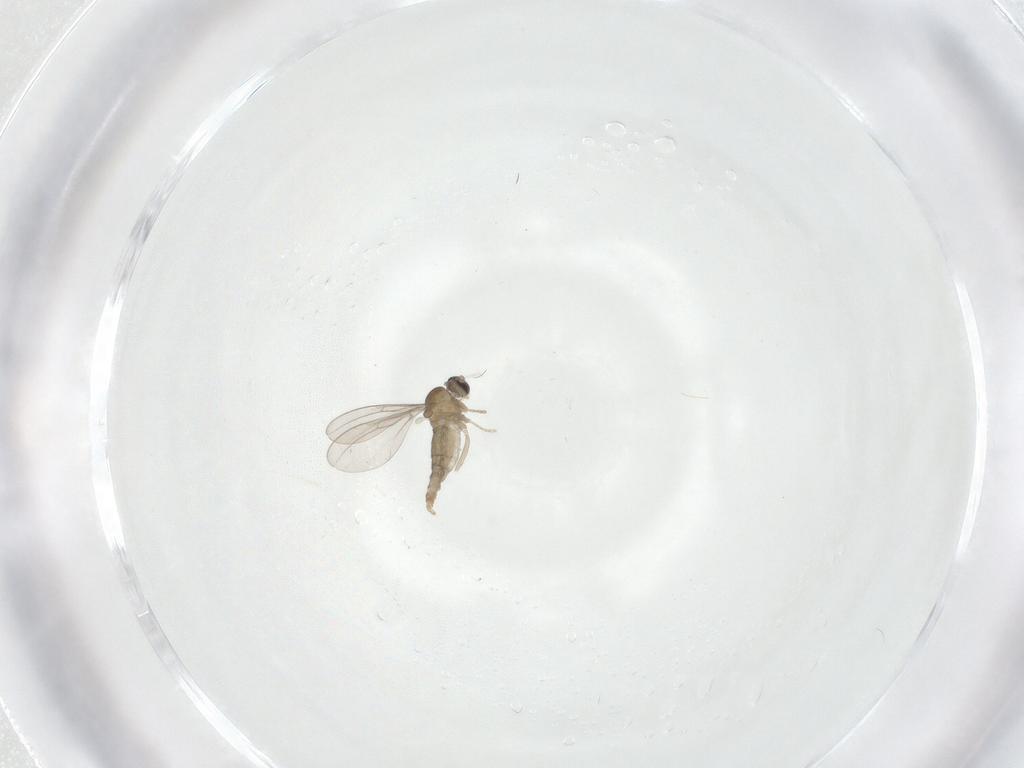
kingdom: Animalia
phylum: Arthropoda
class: Insecta
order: Diptera
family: Cecidomyiidae
